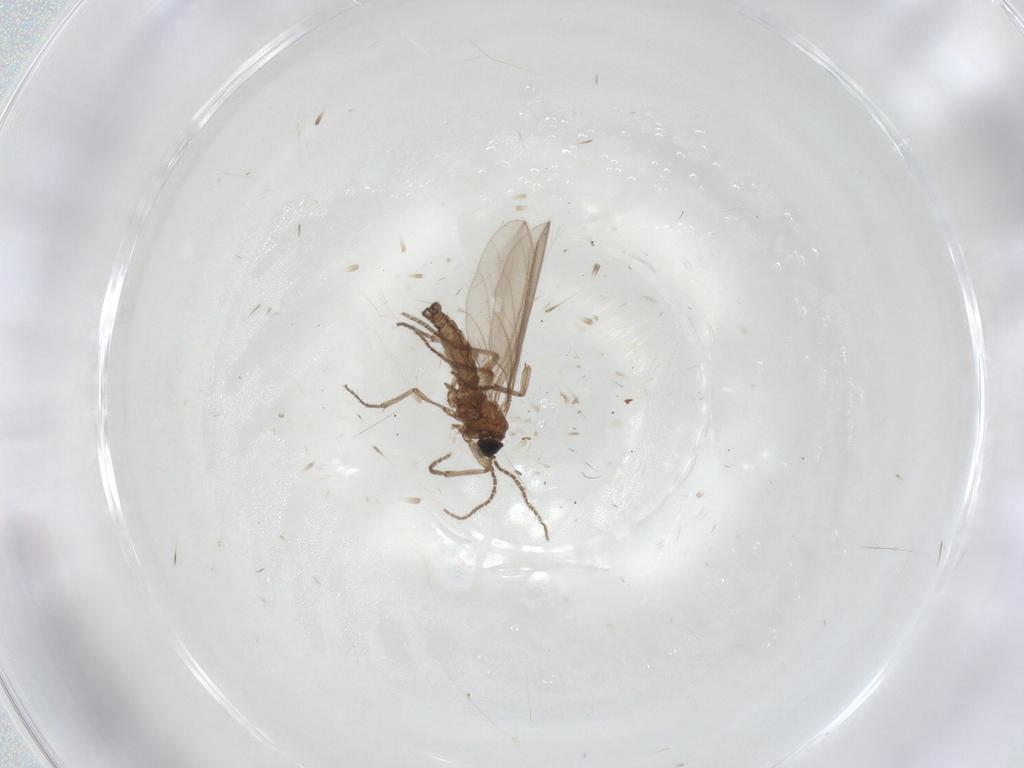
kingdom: Animalia
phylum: Arthropoda
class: Insecta
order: Diptera
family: Sciaridae
